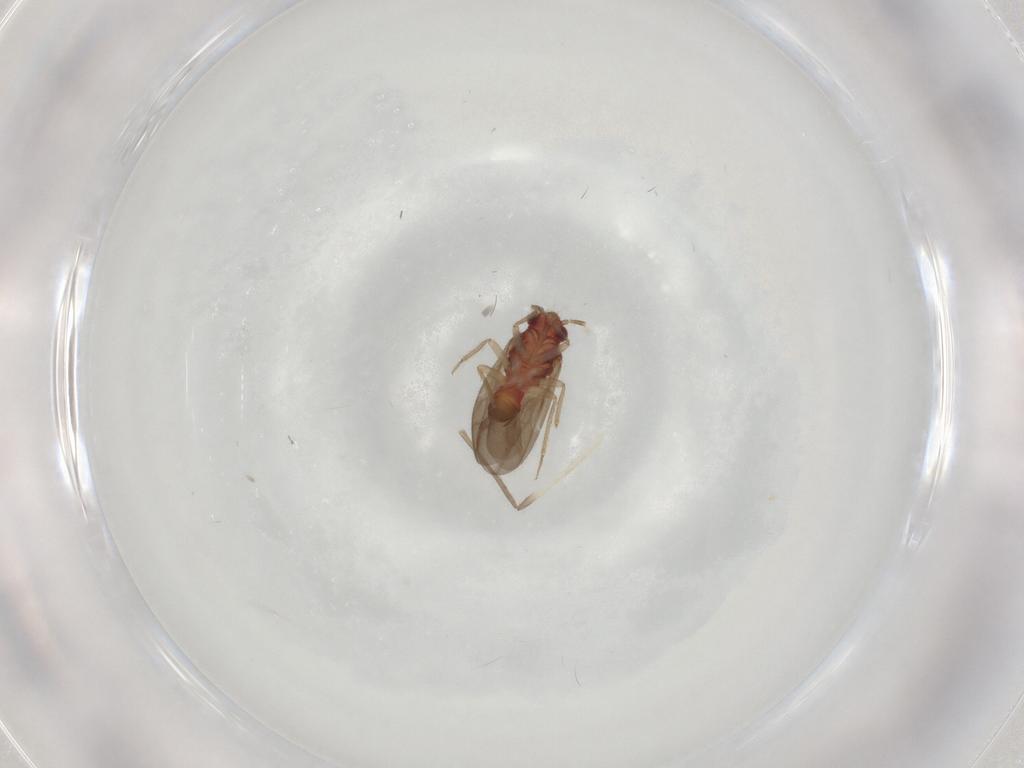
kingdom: Animalia
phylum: Arthropoda
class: Insecta
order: Hemiptera
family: Ceratocombidae
